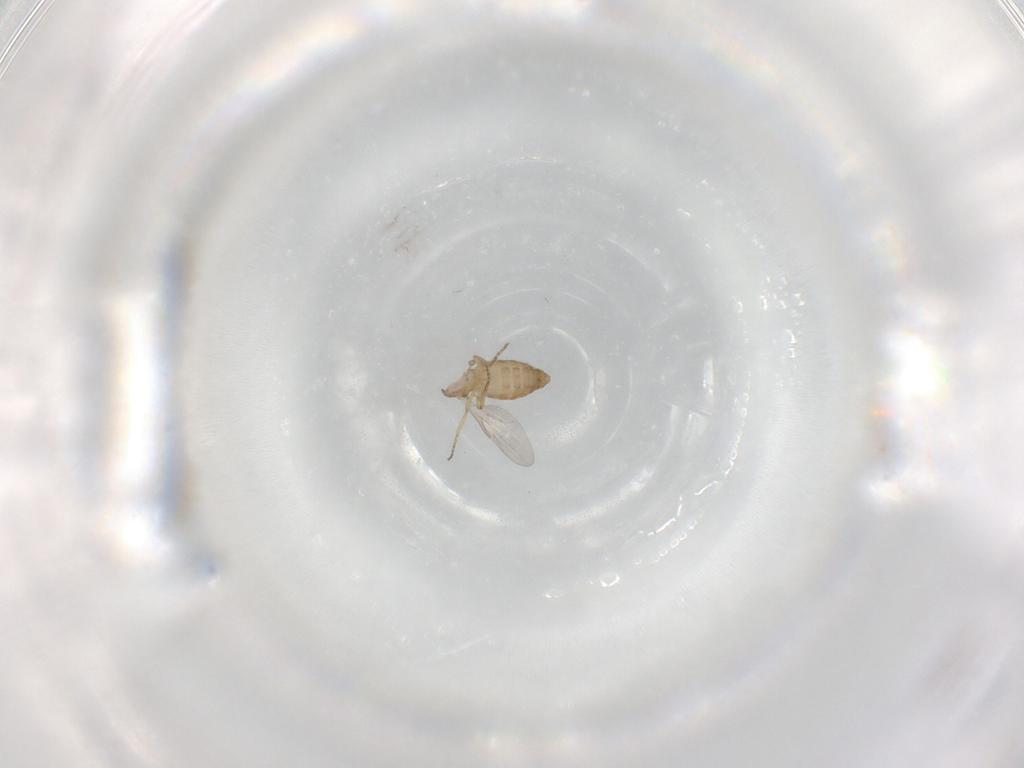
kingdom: Animalia
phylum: Arthropoda
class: Insecta
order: Diptera
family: Ceratopogonidae
